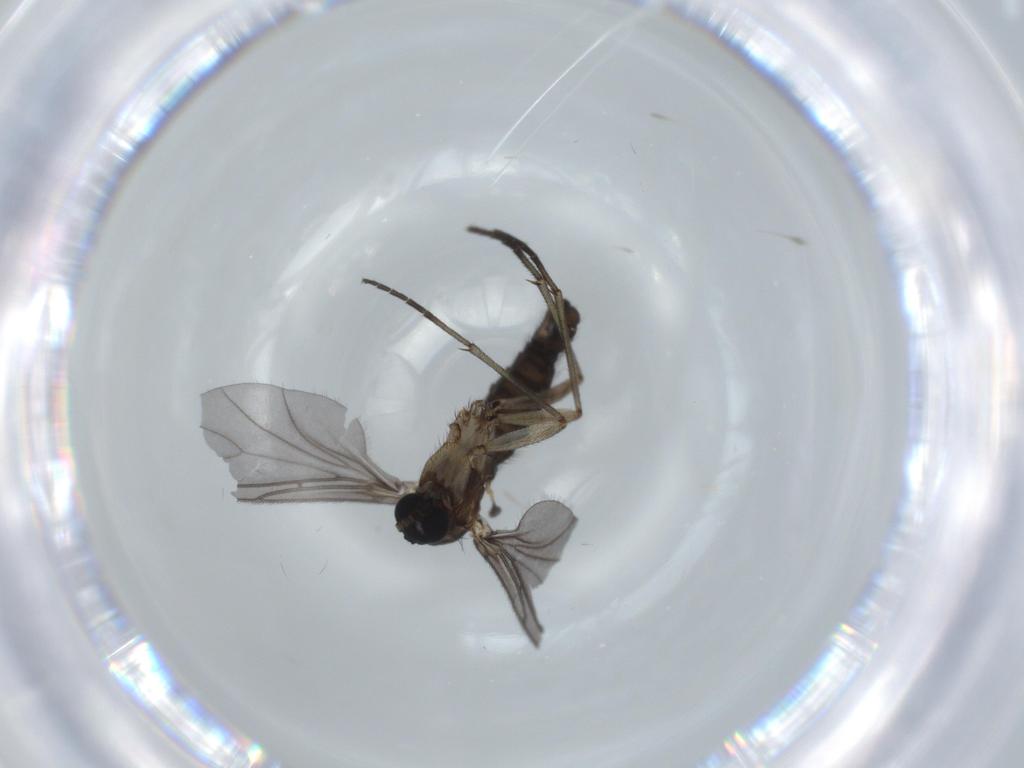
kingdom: Animalia
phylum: Arthropoda
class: Insecta
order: Diptera
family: Sciaridae
